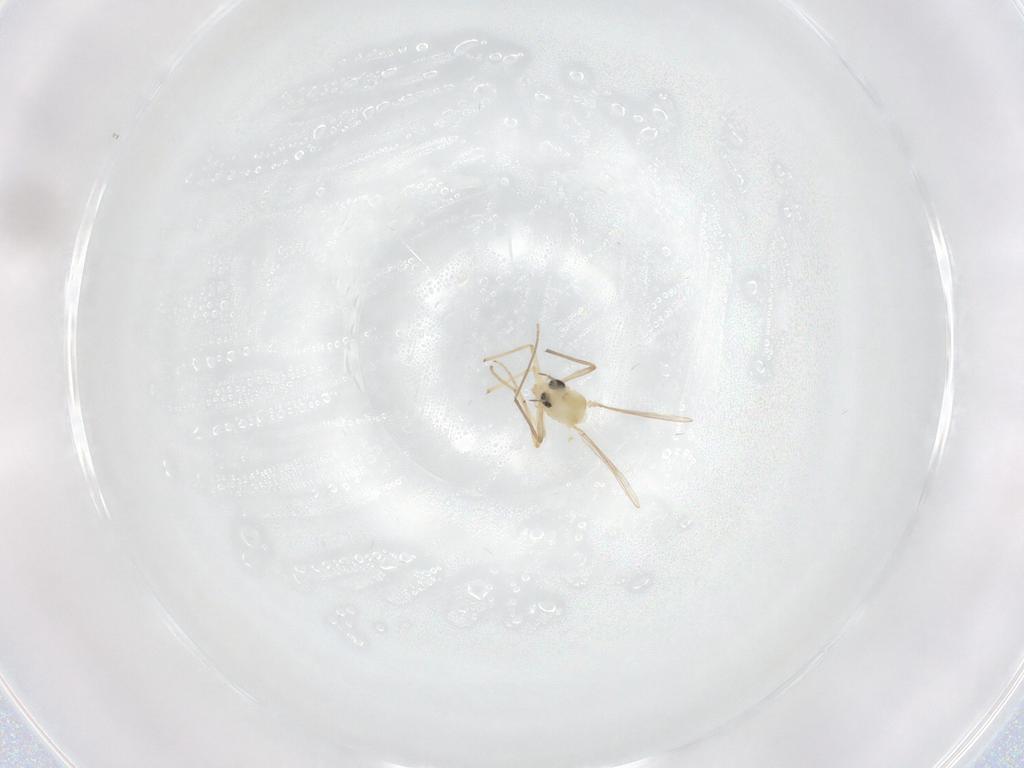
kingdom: Animalia
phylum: Arthropoda
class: Insecta
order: Diptera
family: Chironomidae
